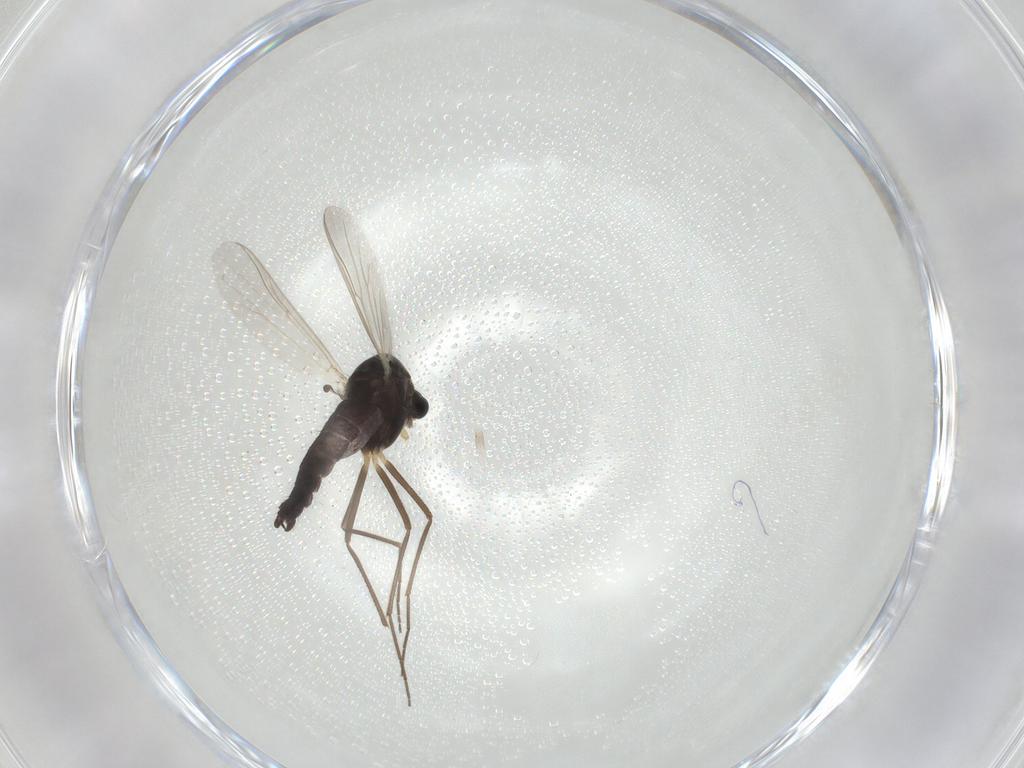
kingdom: Animalia
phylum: Arthropoda
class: Insecta
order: Diptera
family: Chironomidae
